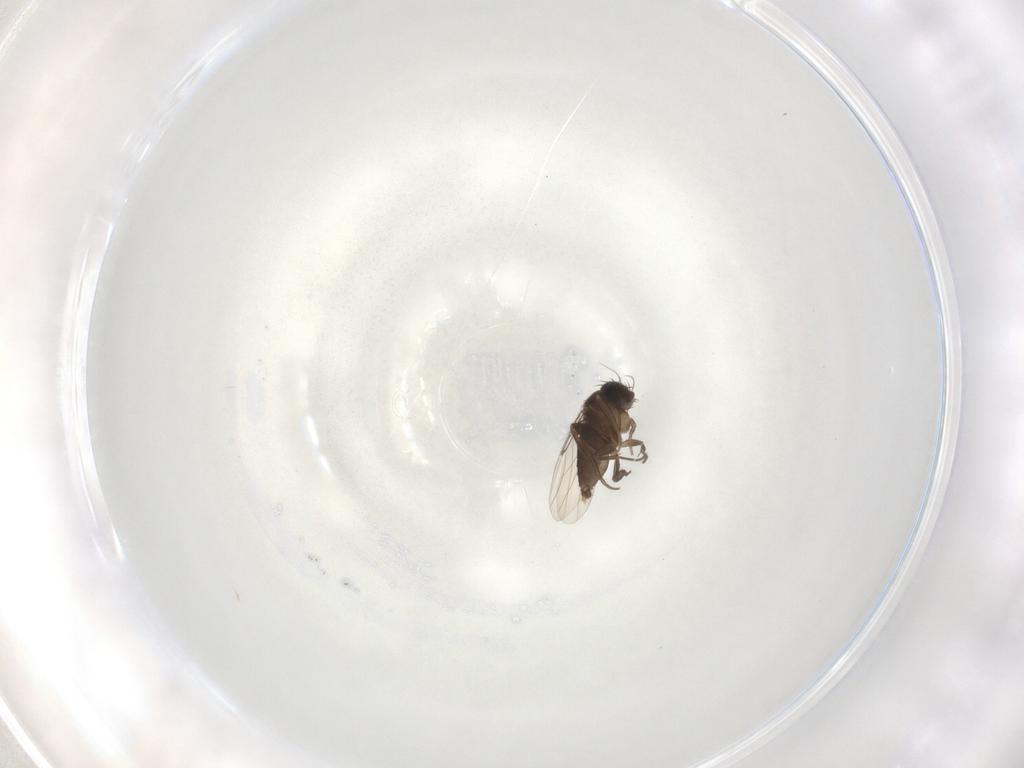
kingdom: Animalia
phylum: Arthropoda
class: Insecta
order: Diptera
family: Phoridae
